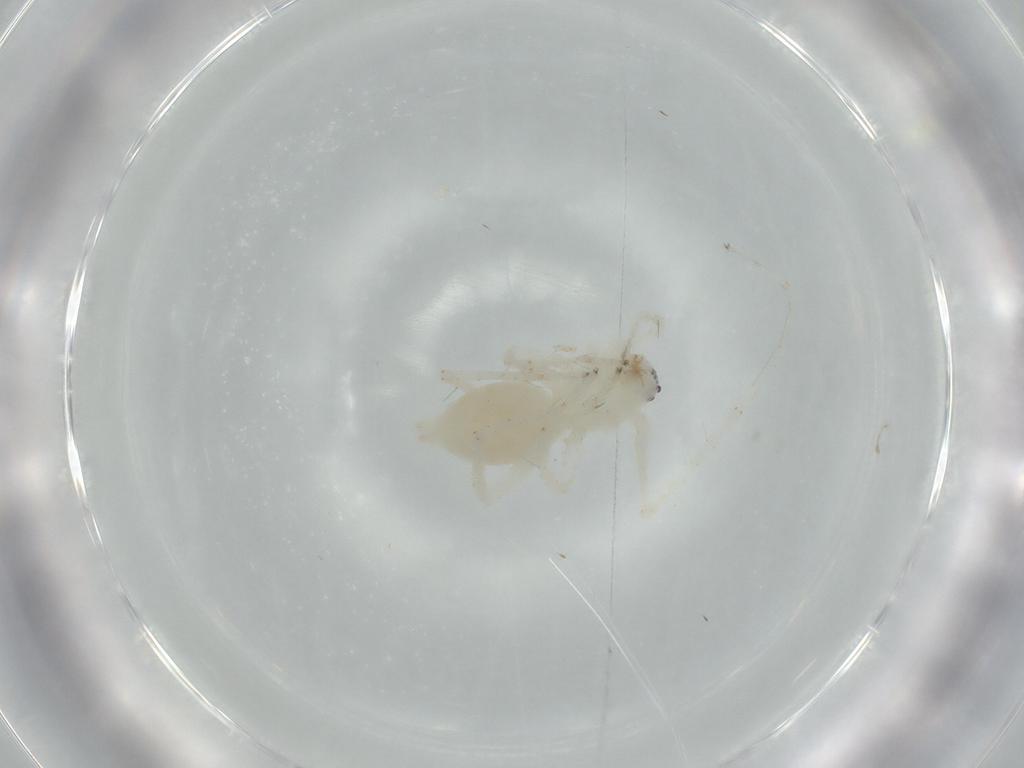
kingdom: Animalia
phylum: Arthropoda
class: Arachnida
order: Araneae
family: Anyphaenidae
